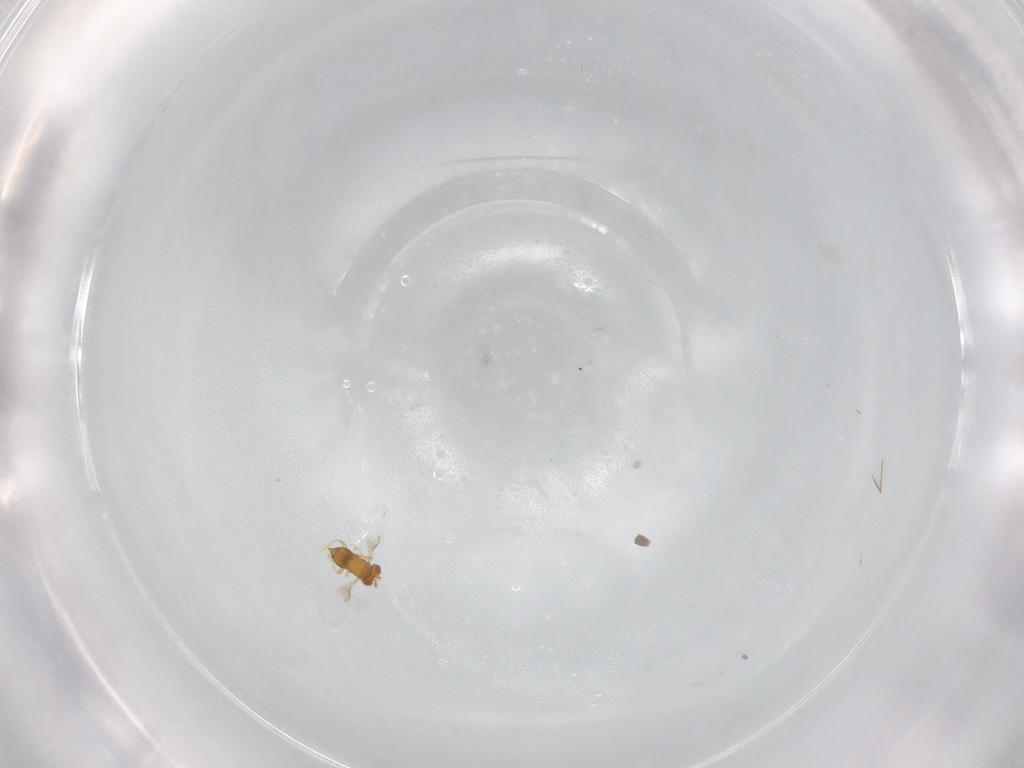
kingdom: Animalia
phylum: Arthropoda
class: Insecta
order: Hymenoptera
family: Trichogrammatidae
